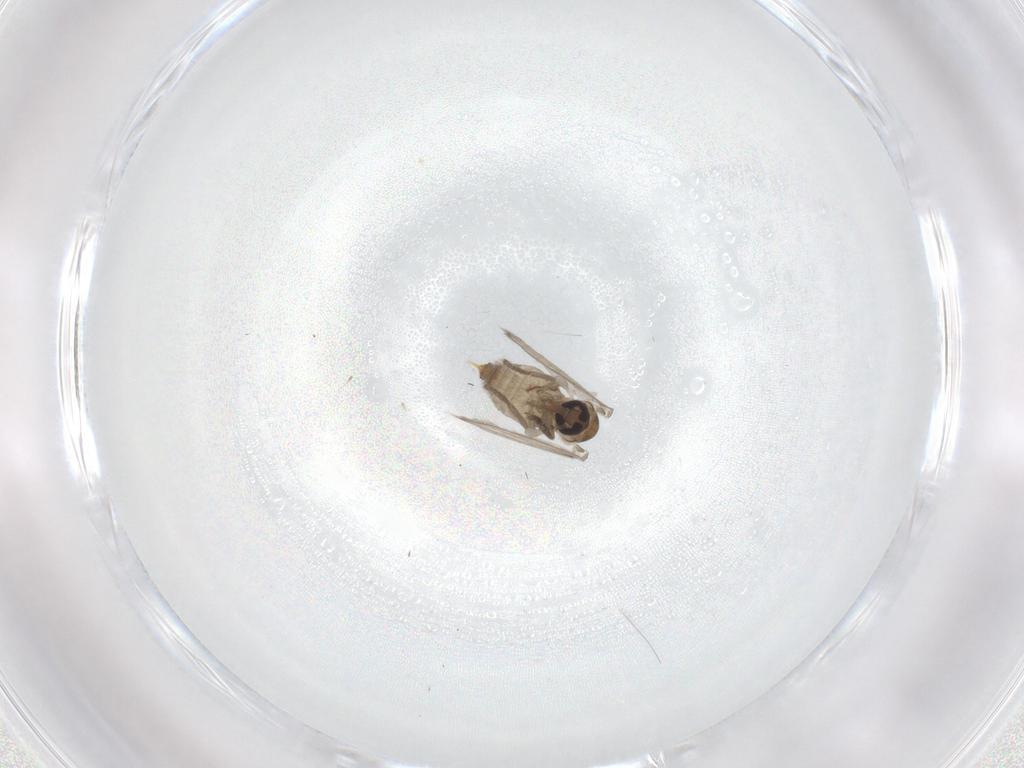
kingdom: Animalia
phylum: Arthropoda
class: Insecta
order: Diptera
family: Psychodidae
